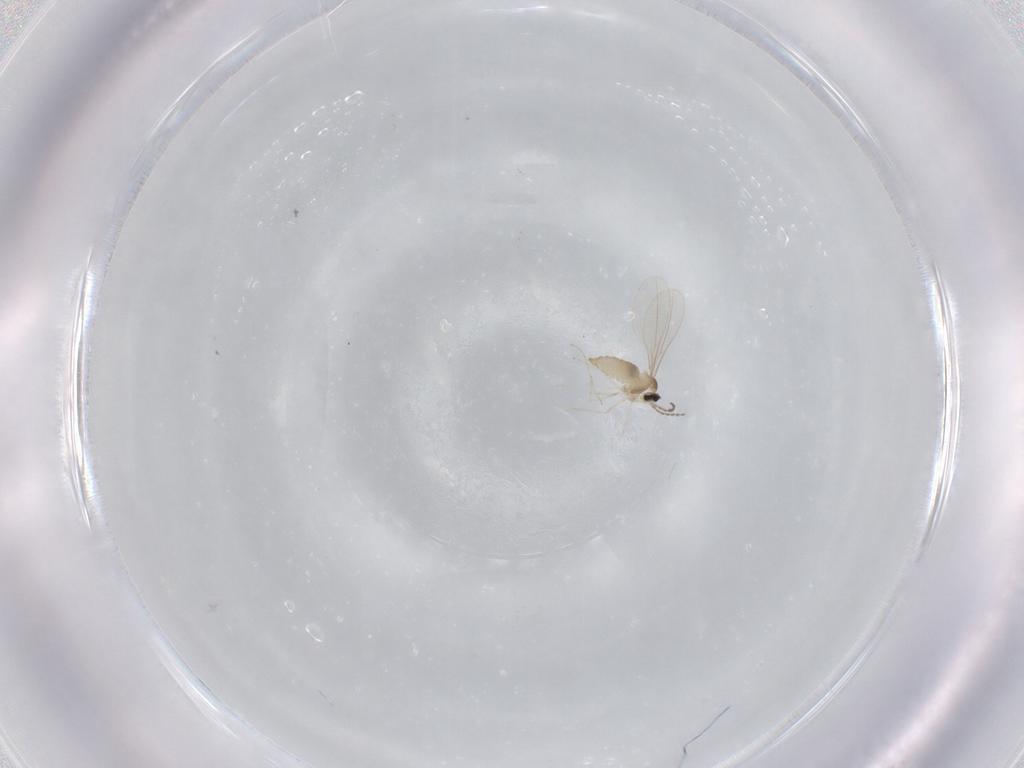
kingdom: Animalia
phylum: Arthropoda
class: Insecta
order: Diptera
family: Cecidomyiidae
